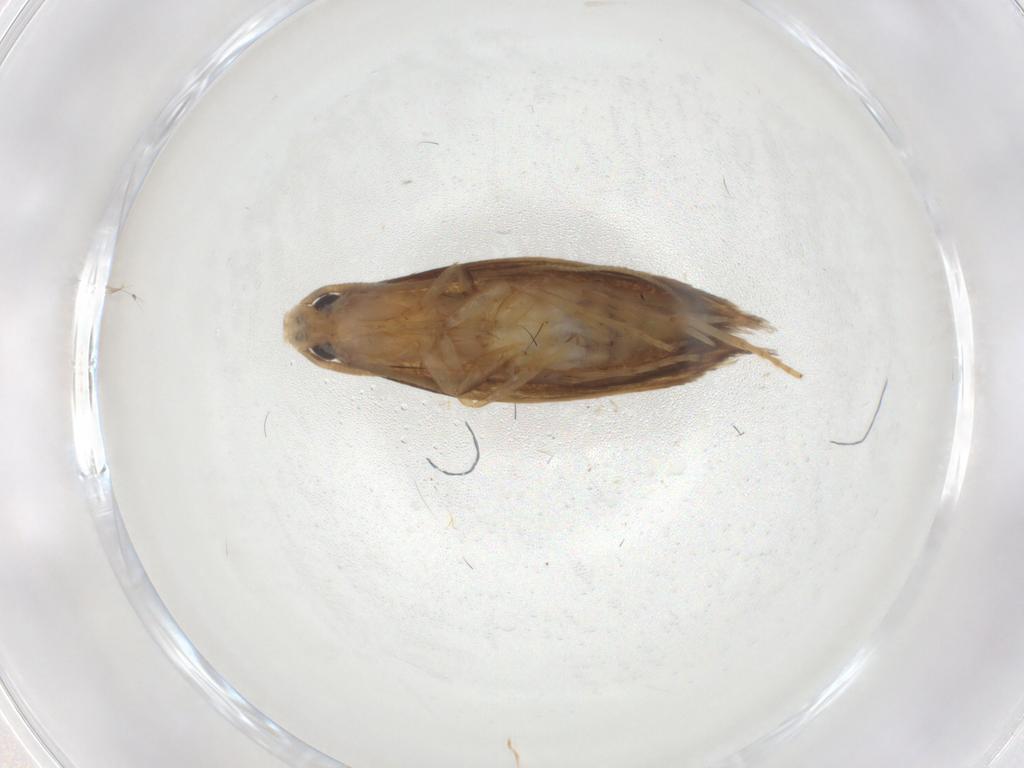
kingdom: Animalia
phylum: Arthropoda
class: Insecta
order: Lepidoptera
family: Tineidae
